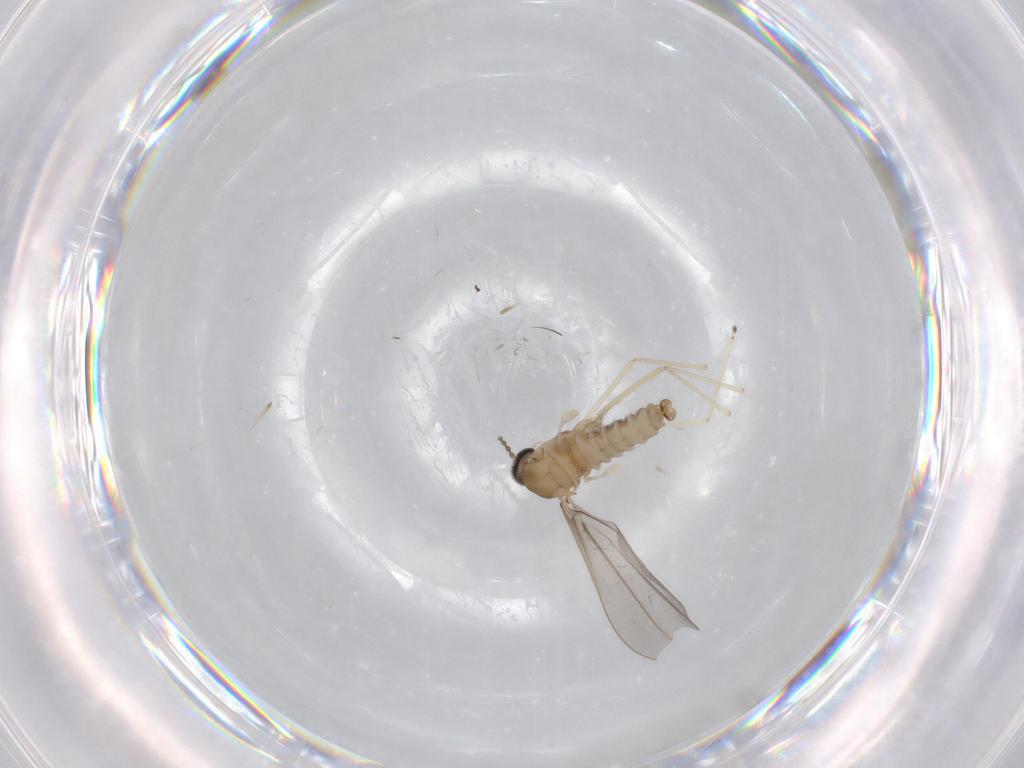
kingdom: Animalia
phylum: Arthropoda
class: Insecta
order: Diptera
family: Cecidomyiidae
